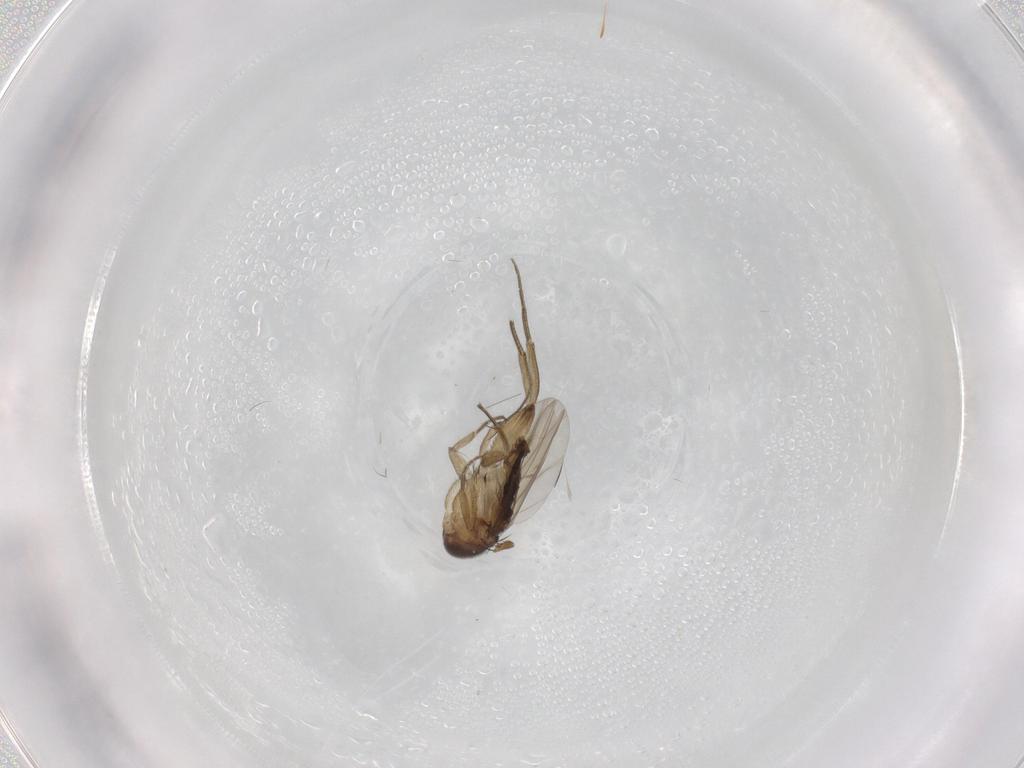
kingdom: Animalia
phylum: Arthropoda
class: Insecta
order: Diptera
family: Phoridae
